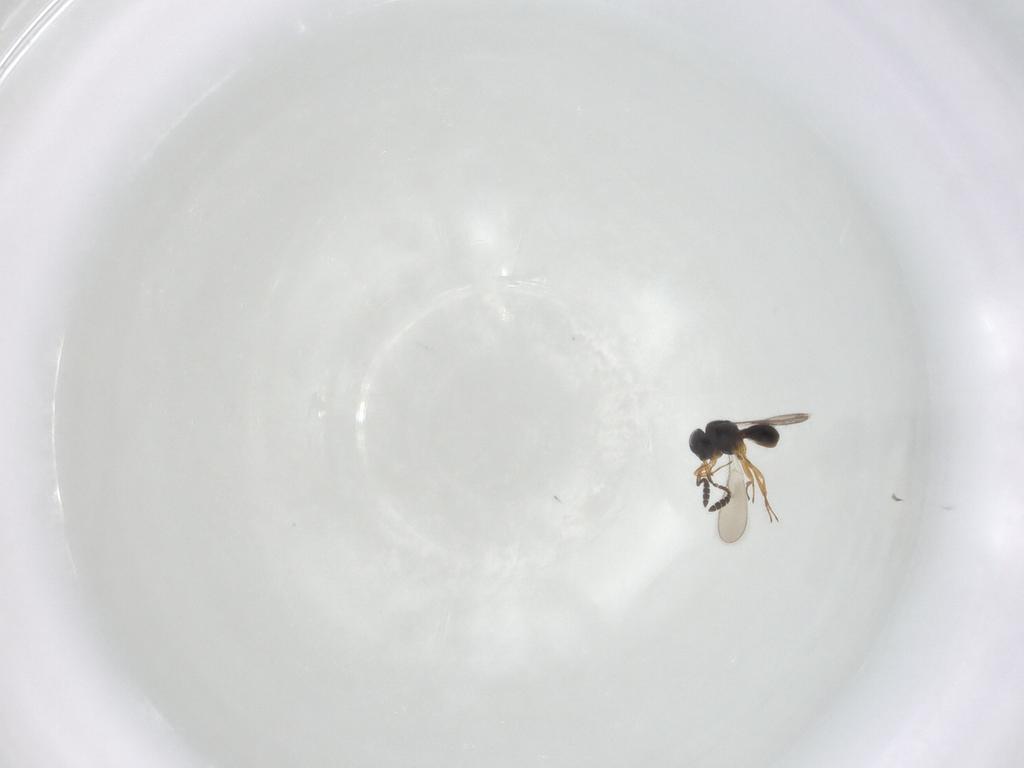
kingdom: Animalia
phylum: Arthropoda
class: Insecta
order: Hymenoptera
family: Scelionidae
